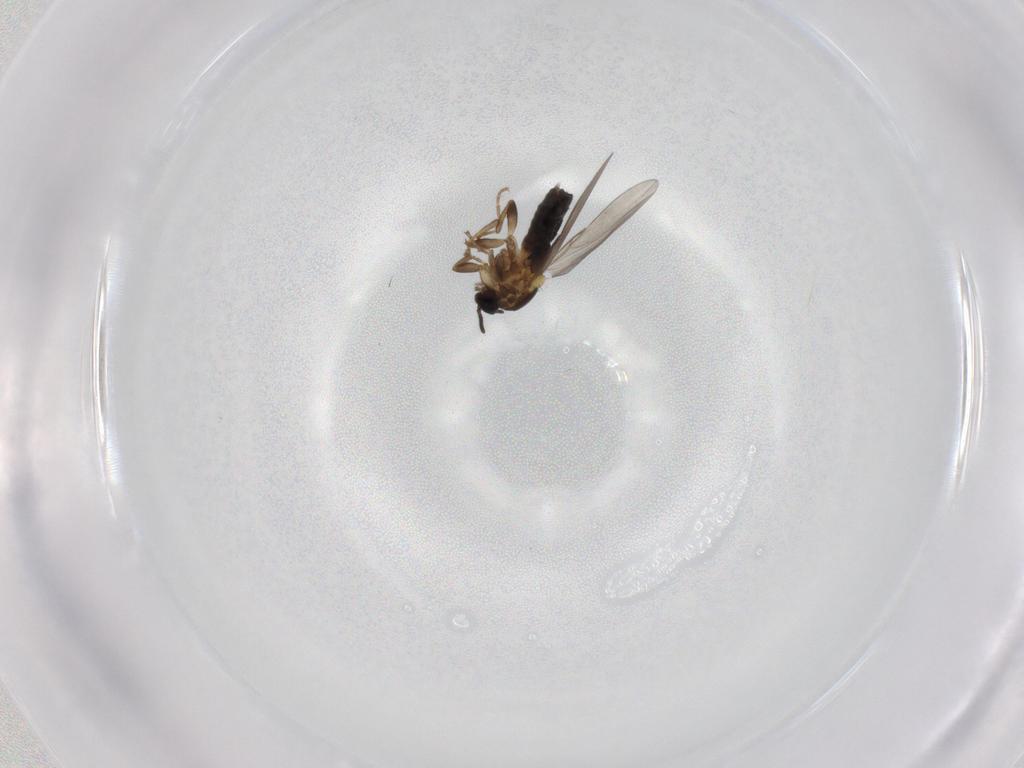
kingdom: Animalia
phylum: Arthropoda
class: Insecta
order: Diptera
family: Scatopsidae
